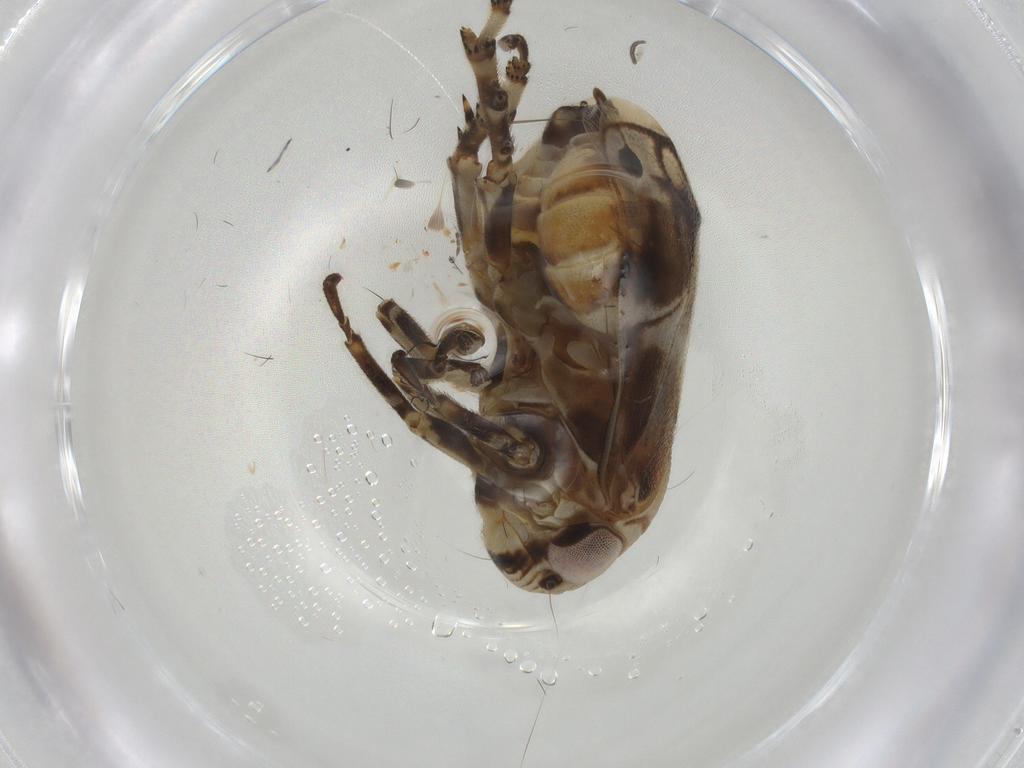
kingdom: Animalia
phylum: Arthropoda
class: Insecta
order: Hemiptera
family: Clastopteridae
